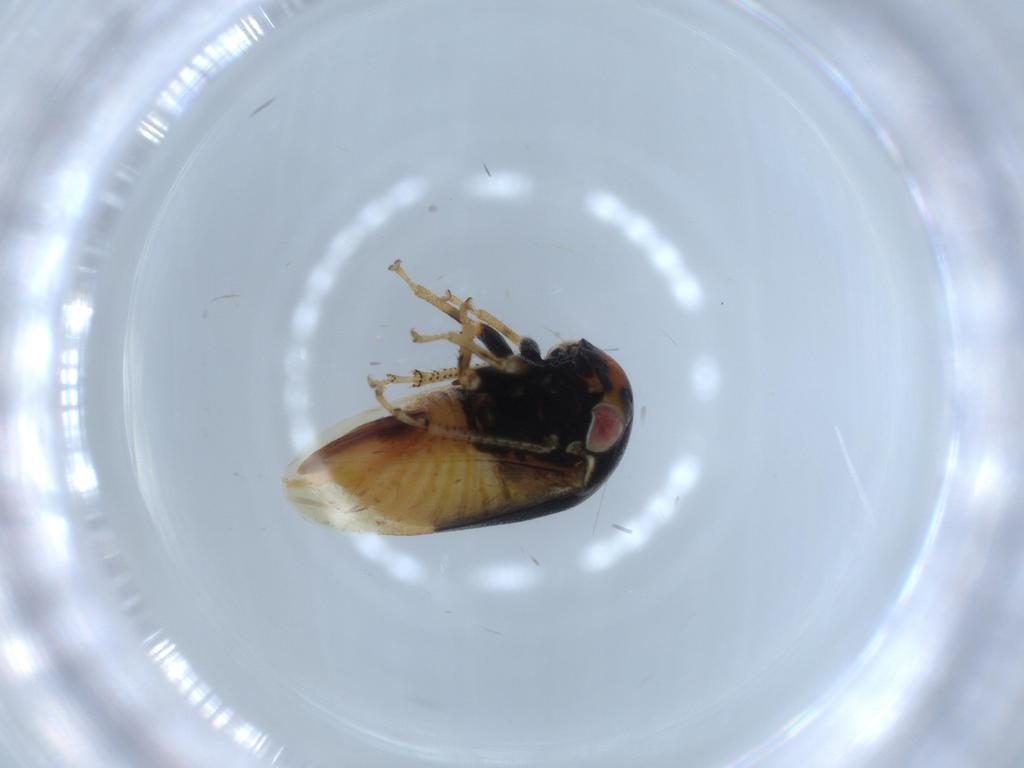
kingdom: Animalia
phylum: Arthropoda
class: Insecta
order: Hemiptera
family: Membracidae
